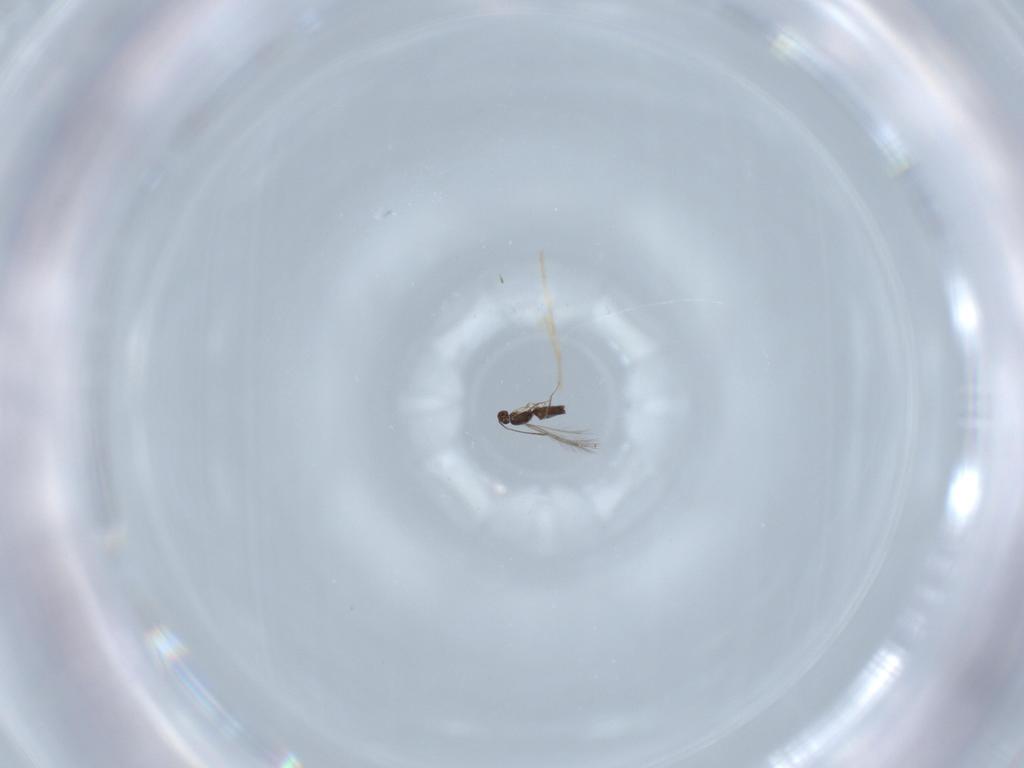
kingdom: Animalia
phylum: Arthropoda
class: Insecta
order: Hymenoptera
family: Mymaridae
